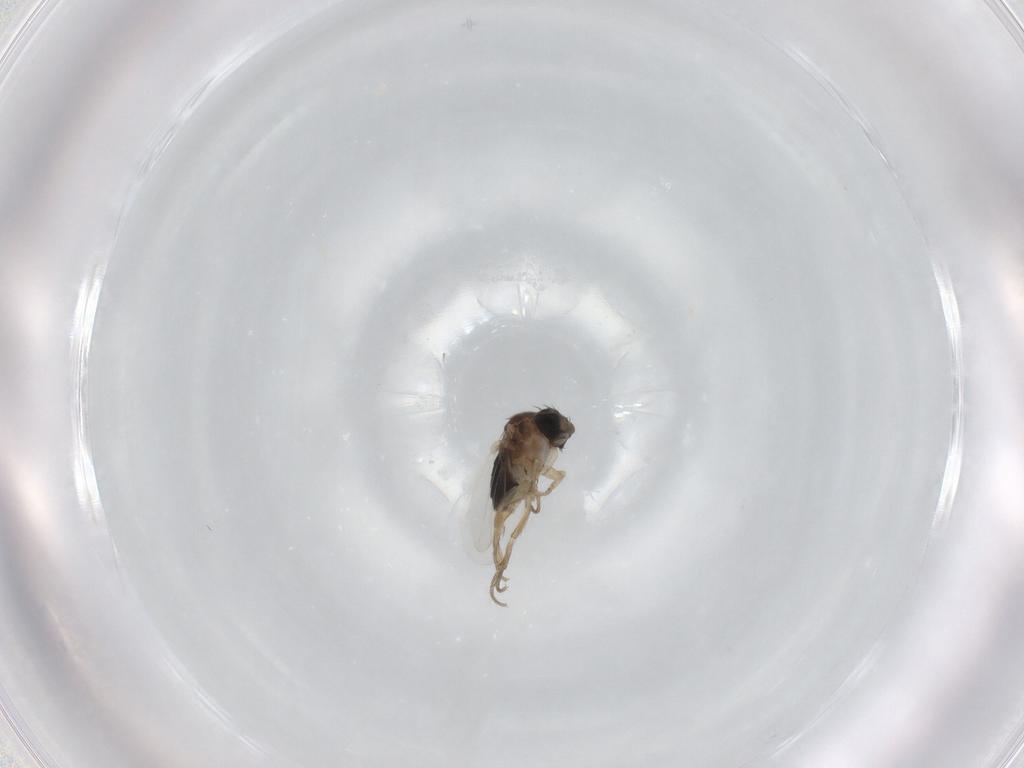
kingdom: Animalia
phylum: Arthropoda
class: Insecta
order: Diptera
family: Phoridae
